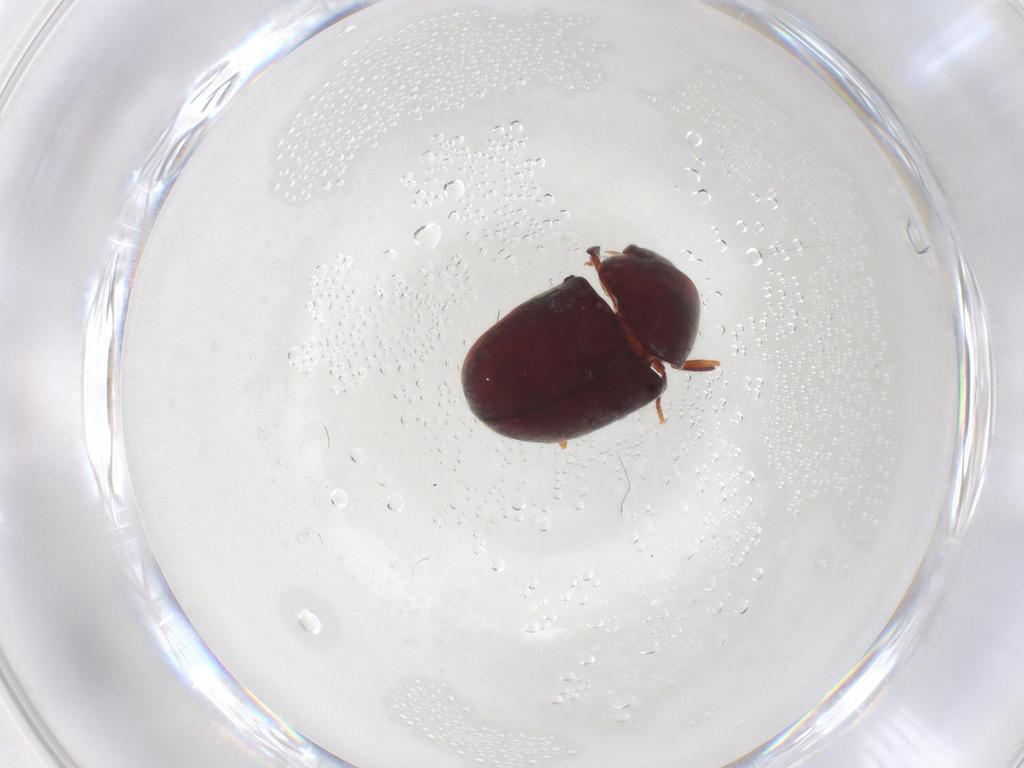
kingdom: Animalia
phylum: Arthropoda
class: Insecta
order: Coleoptera
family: Ptinidae
